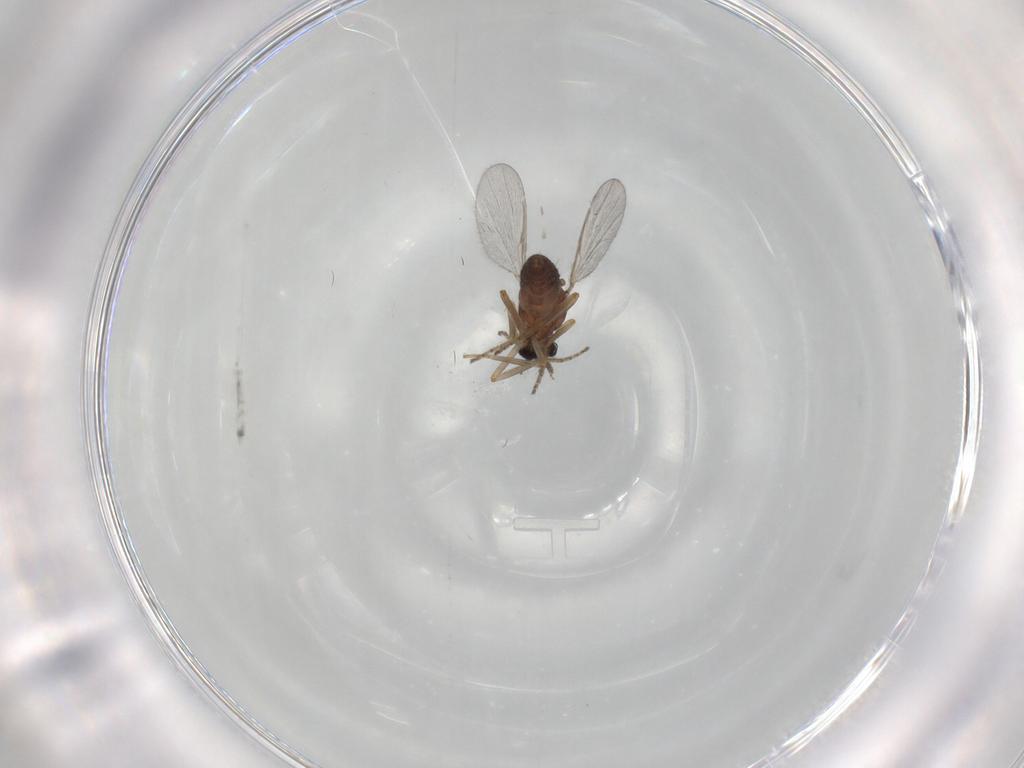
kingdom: Animalia
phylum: Arthropoda
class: Insecta
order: Diptera
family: Ceratopogonidae
